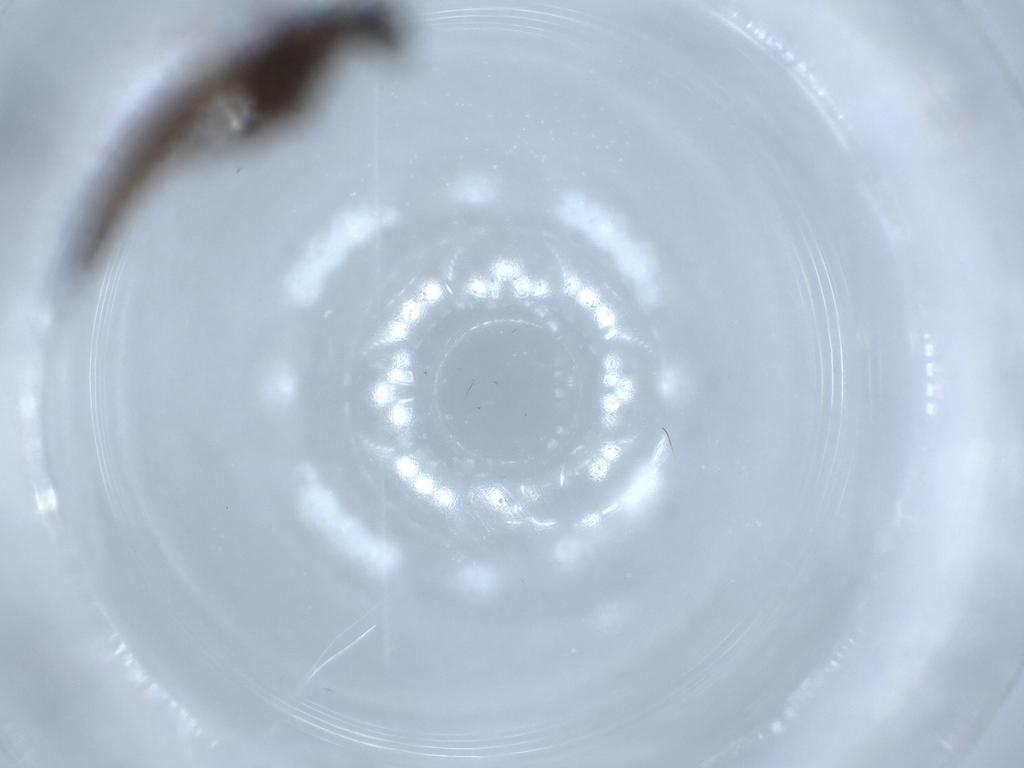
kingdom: Animalia
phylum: Arthropoda
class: Insecta
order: Diptera
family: Sciaridae
